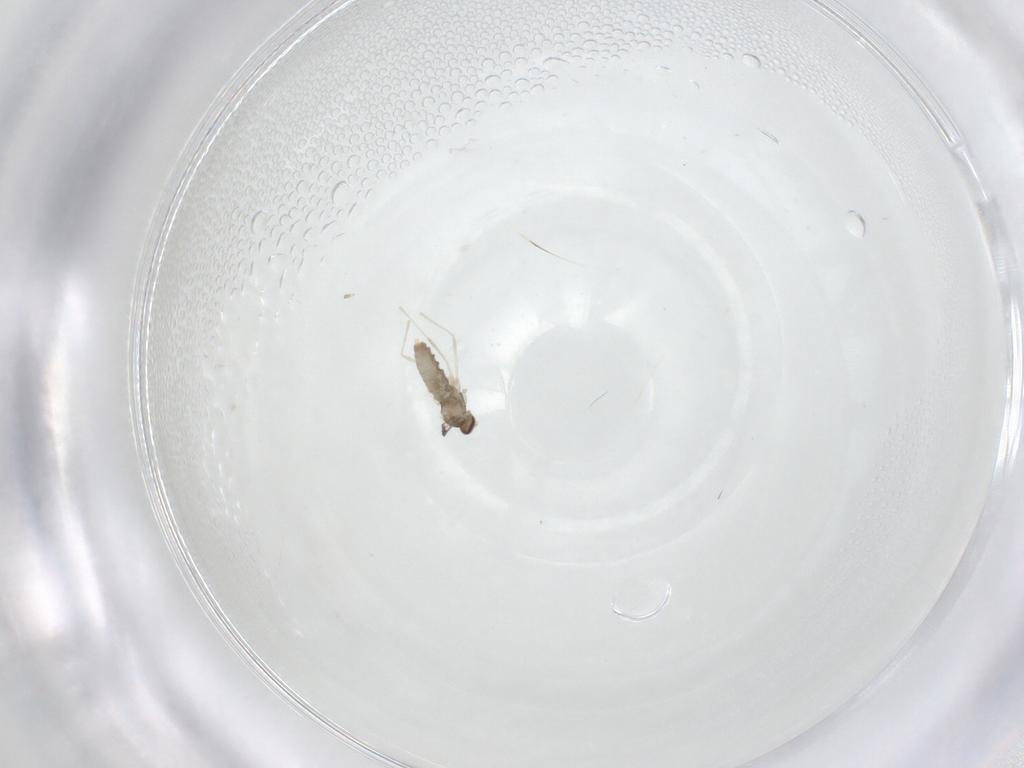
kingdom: Animalia
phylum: Arthropoda
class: Insecta
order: Diptera
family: Cecidomyiidae
